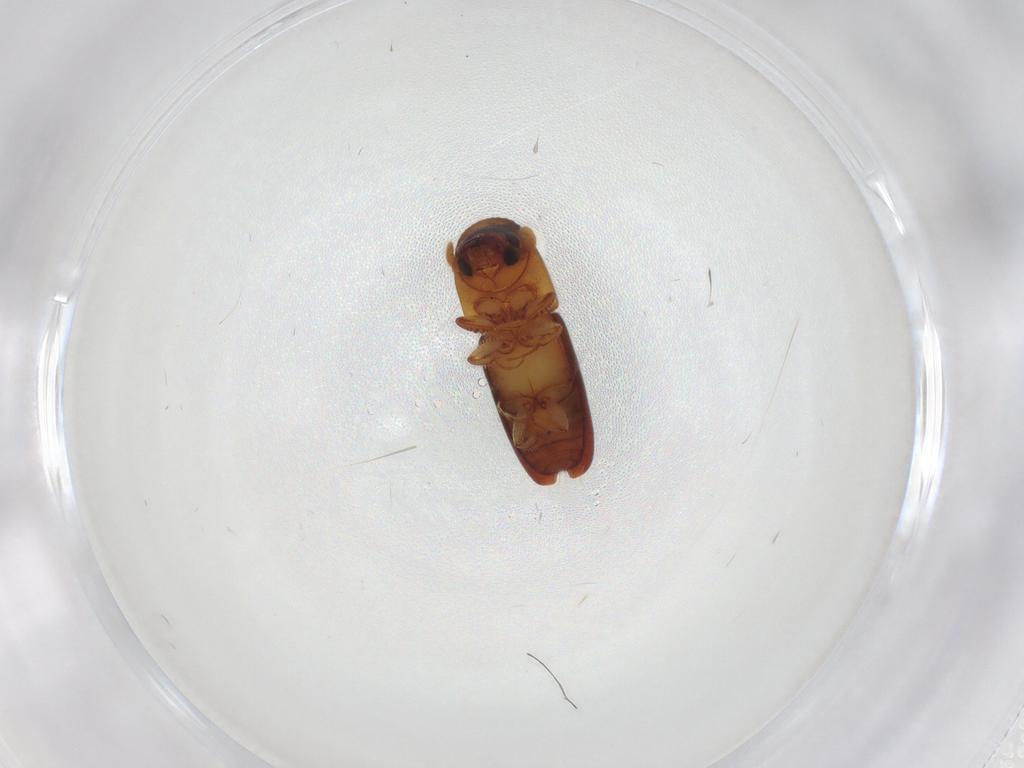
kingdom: Animalia
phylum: Arthropoda
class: Insecta
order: Coleoptera
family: Curculionidae
